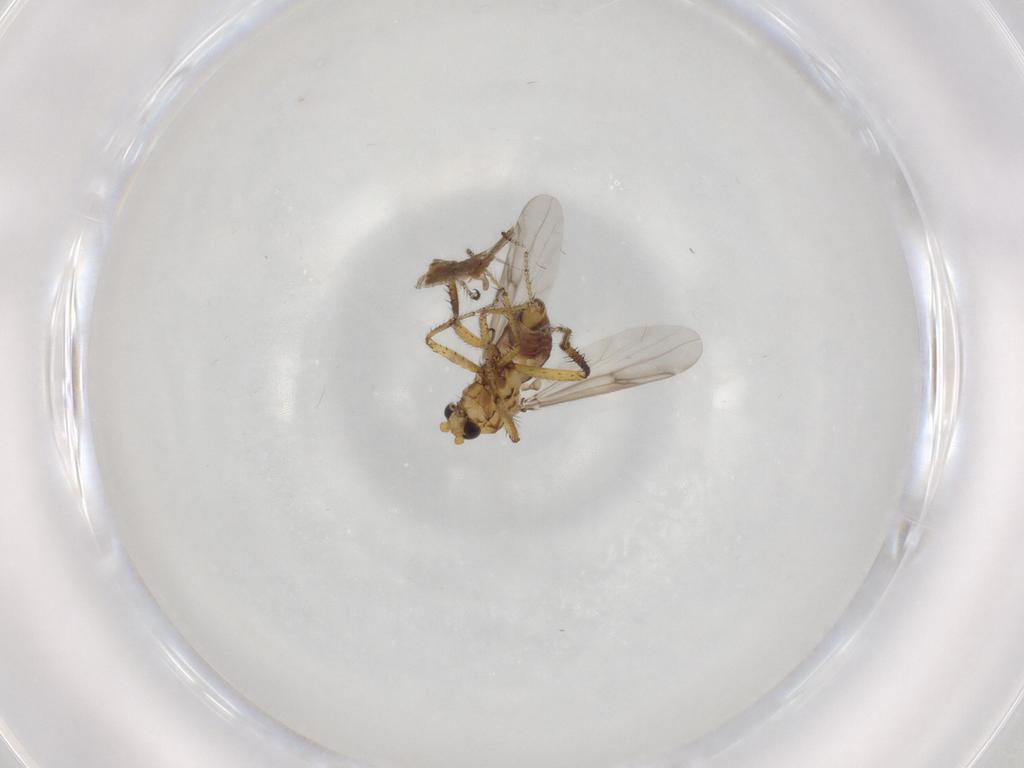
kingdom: Animalia
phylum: Arthropoda
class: Insecta
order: Diptera
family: Ceratopogonidae
